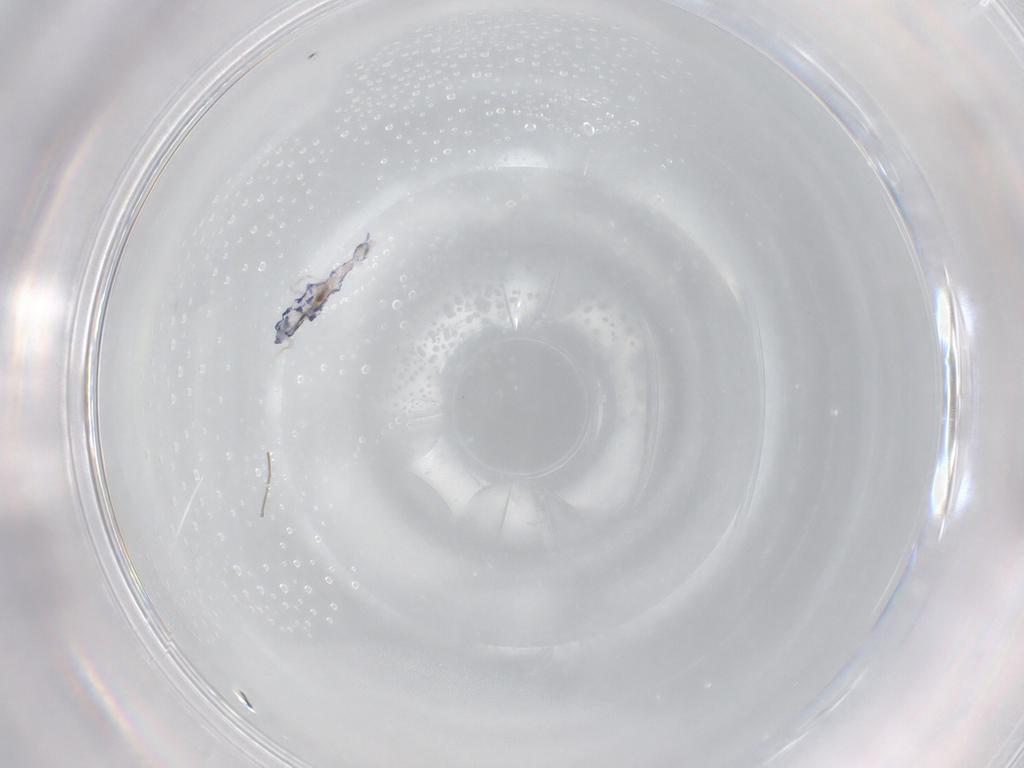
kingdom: Animalia
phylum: Arthropoda
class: Collembola
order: Entomobryomorpha
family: Entomobryidae
